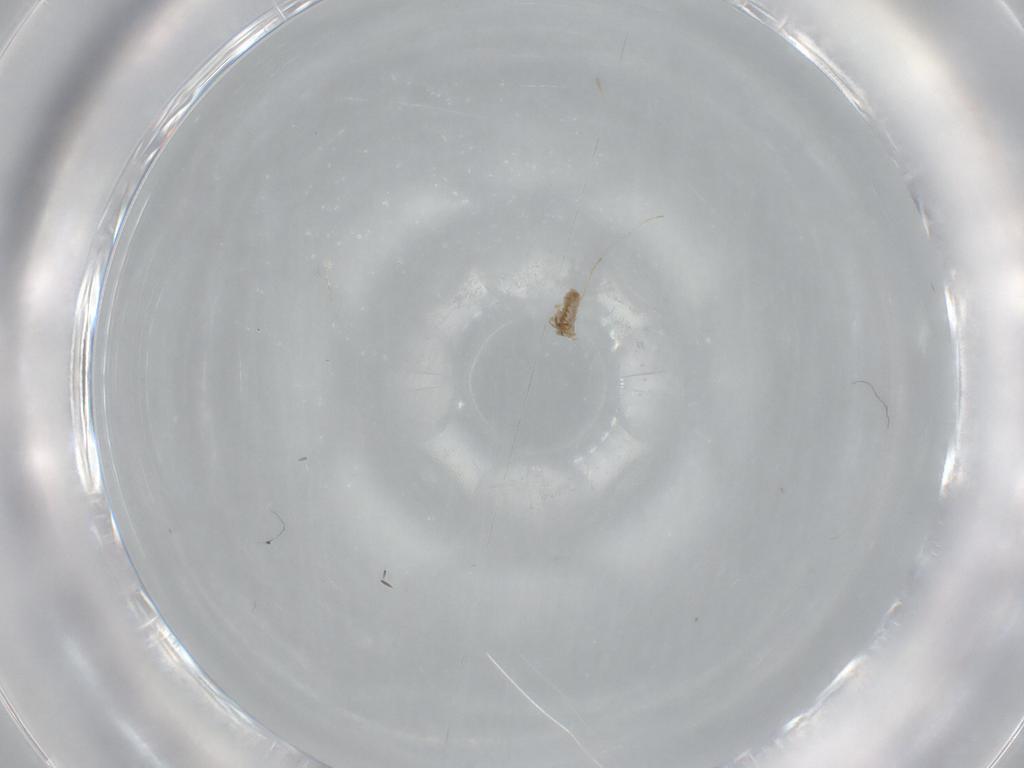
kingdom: Animalia
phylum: Arthropoda
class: Insecta
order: Diptera
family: Cecidomyiidae
